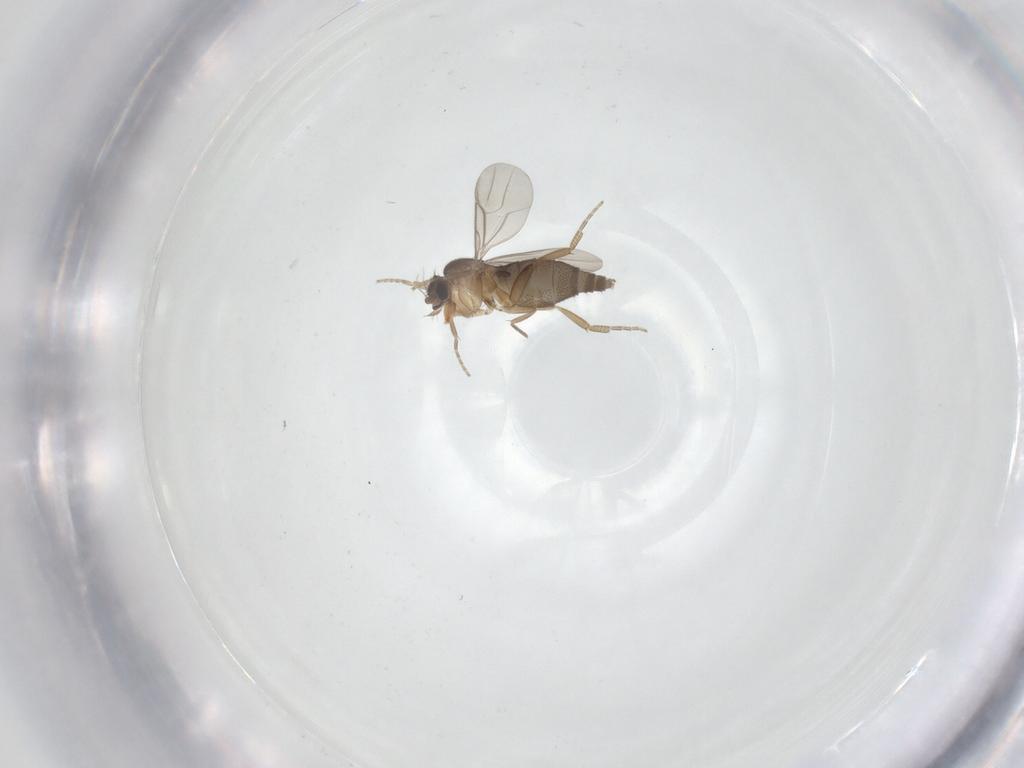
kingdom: Animalia
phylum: Arthropoda
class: Insecta
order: Diptera
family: Phoridae
